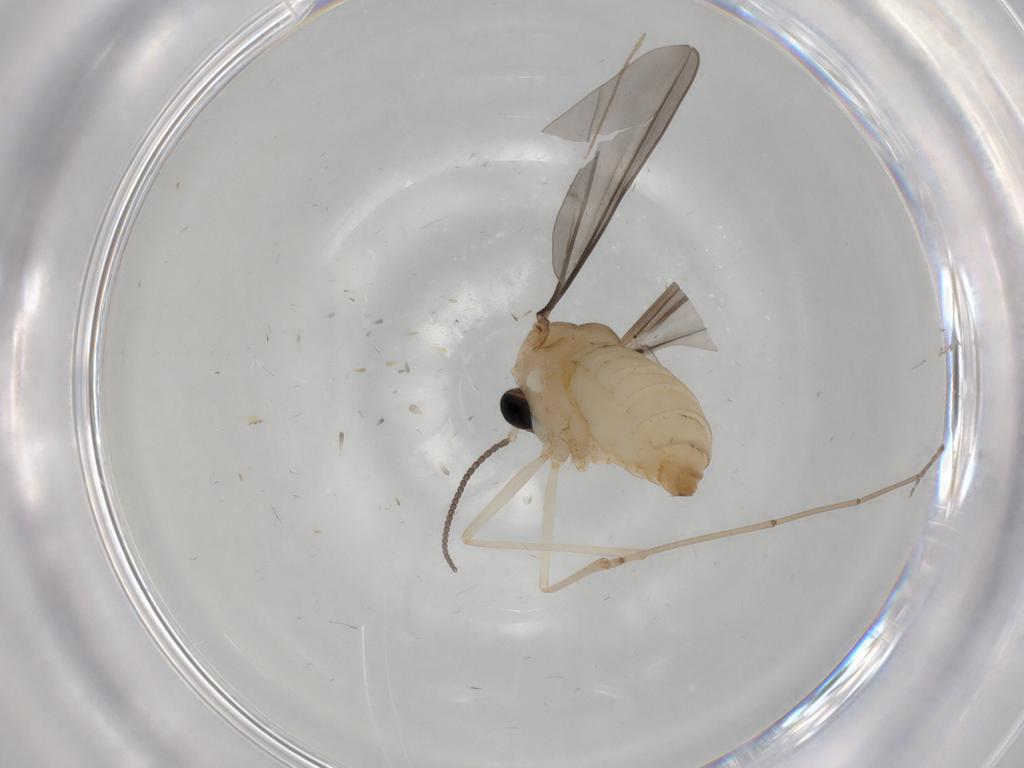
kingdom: Animalia
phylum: Arthropoda
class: Insecta
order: Diptera
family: Cecidomyiidae
